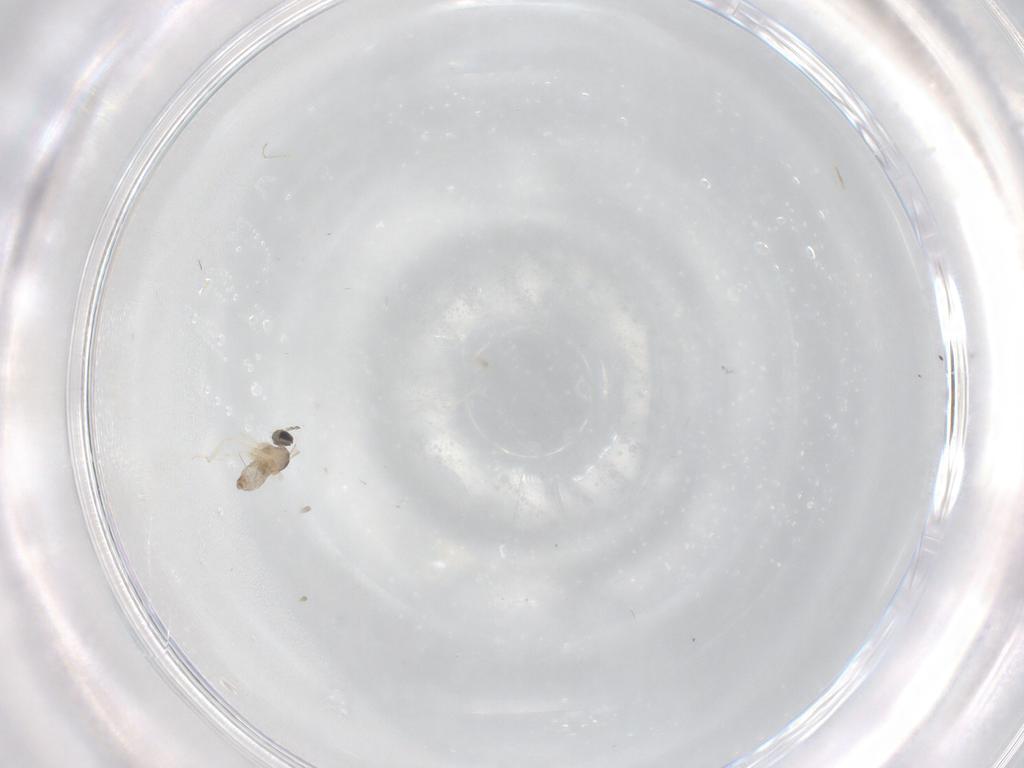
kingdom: Animalia
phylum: Arthropoda
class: Insecta
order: Diptera
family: Cecidomyiidae
